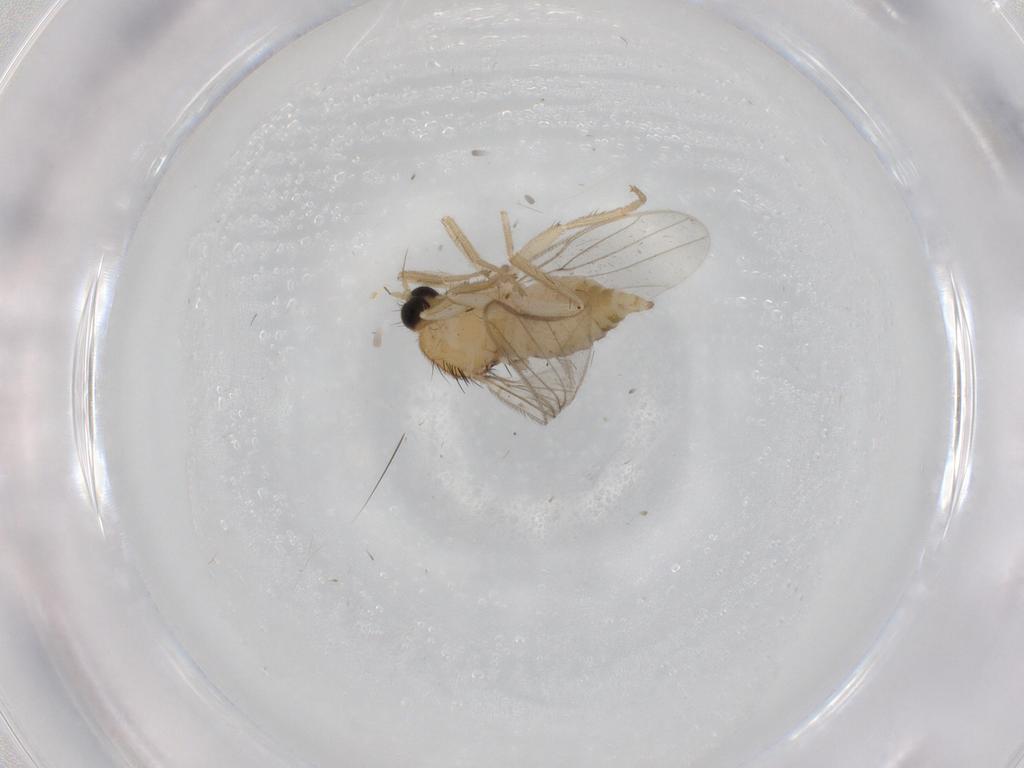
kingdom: Animalia
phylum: Arthropoda
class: Insecta
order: Diptera
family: Hybotidae
